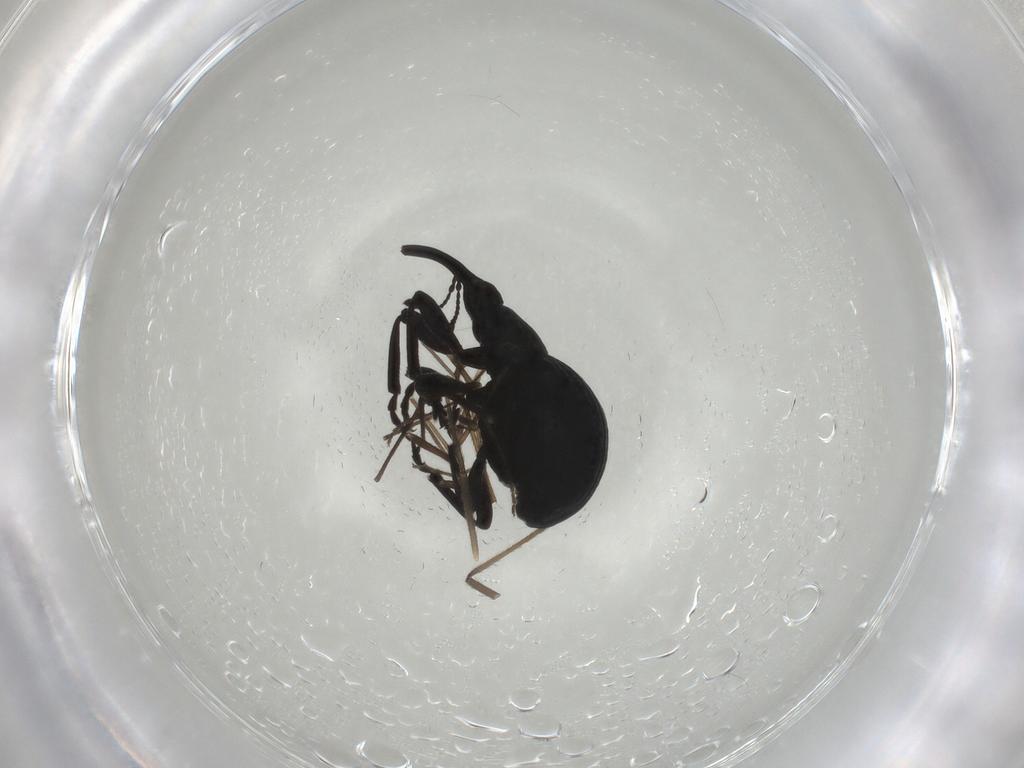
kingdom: Animalia
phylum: Arthropoda
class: Insecta
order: Coleoptera
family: Brentidae
